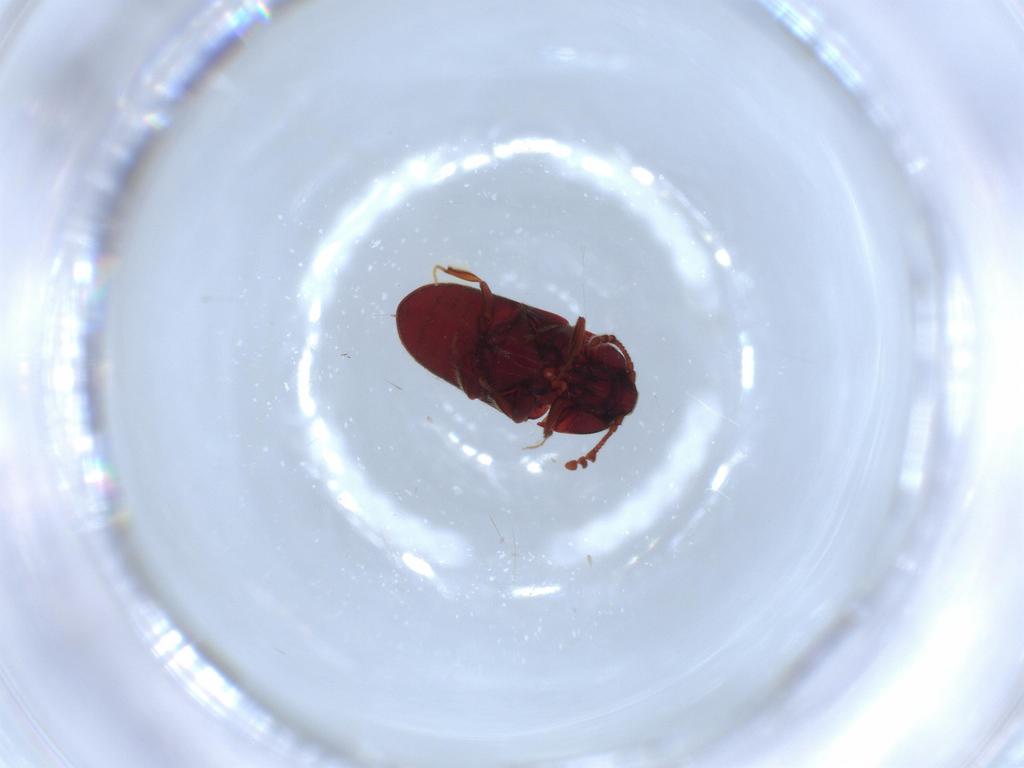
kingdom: Animalia
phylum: Arthropoda
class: Insecta
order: Coleoptera
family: Throscidae
